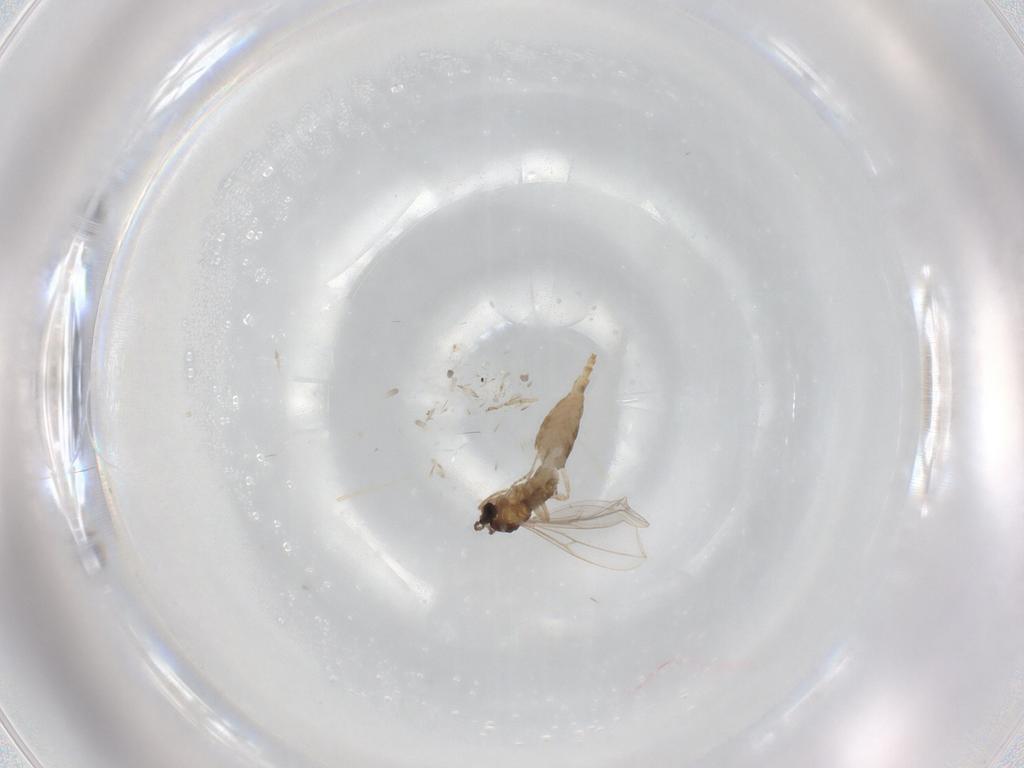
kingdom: Animalia
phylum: Arthropoda
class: Insecta
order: Diptera
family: Cecidomyiidae
